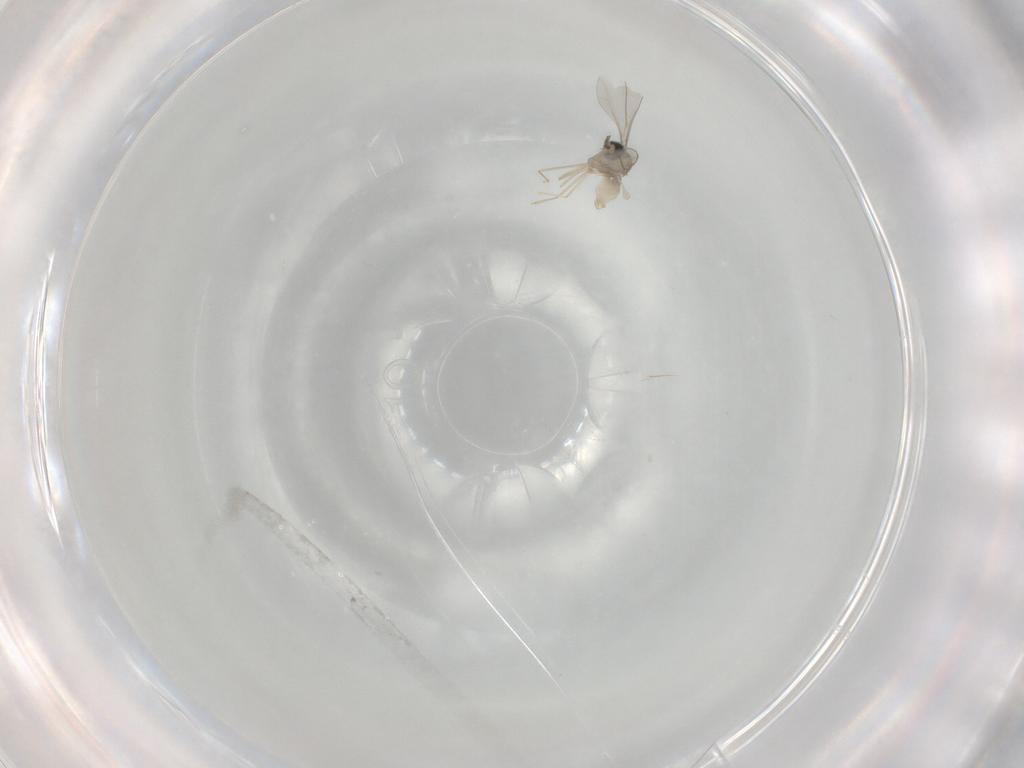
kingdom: Animalia
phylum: Arthropoda
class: Insecta
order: Diptera
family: Cecidomyiidae
